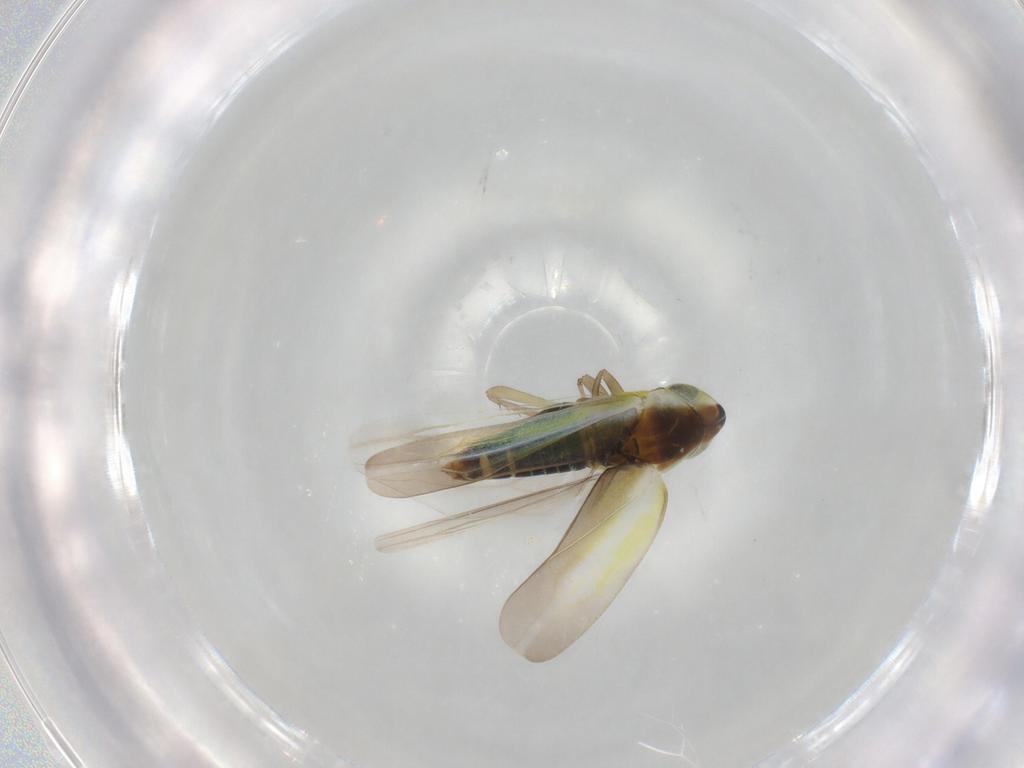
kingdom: Animalia
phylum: Arthropoda
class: Insecta
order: Hemiptera
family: Cicadellidae
